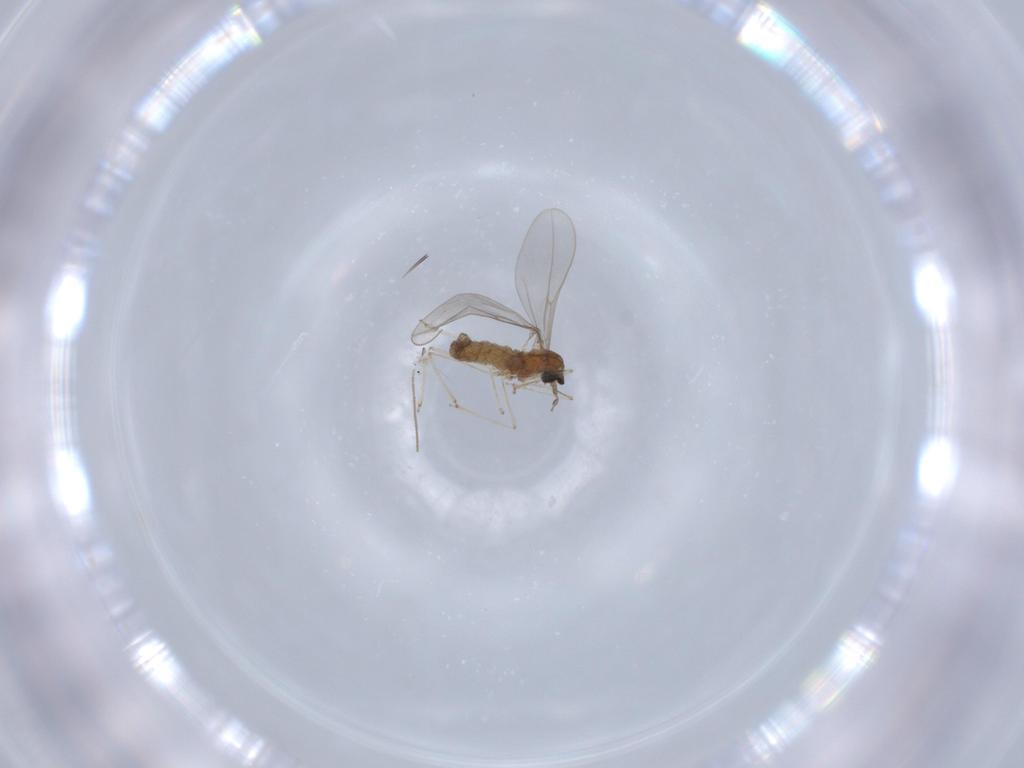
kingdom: Animalia
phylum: Arthropoda
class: Insecta
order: Diptera
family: Cecidomyiidae
